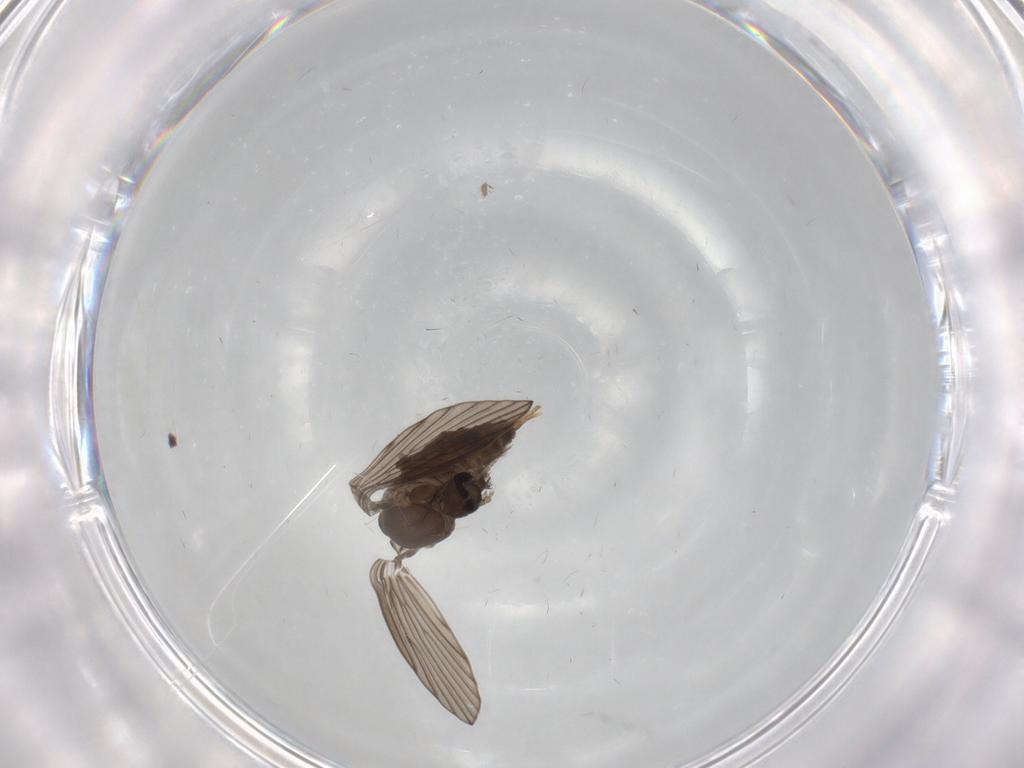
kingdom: Animalia
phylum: Arthropoda
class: Insecta
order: Diptera
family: Psychodidae
